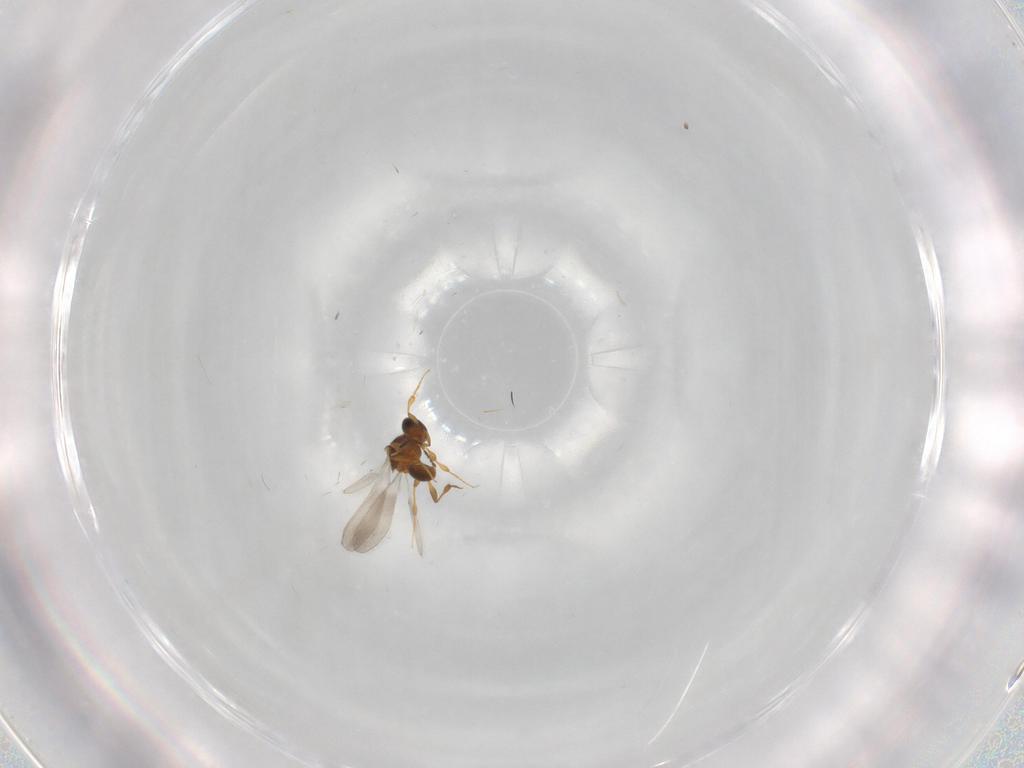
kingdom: Animalia
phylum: Arthropoda
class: Insecta
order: Hymenoptera
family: Platygastridae
